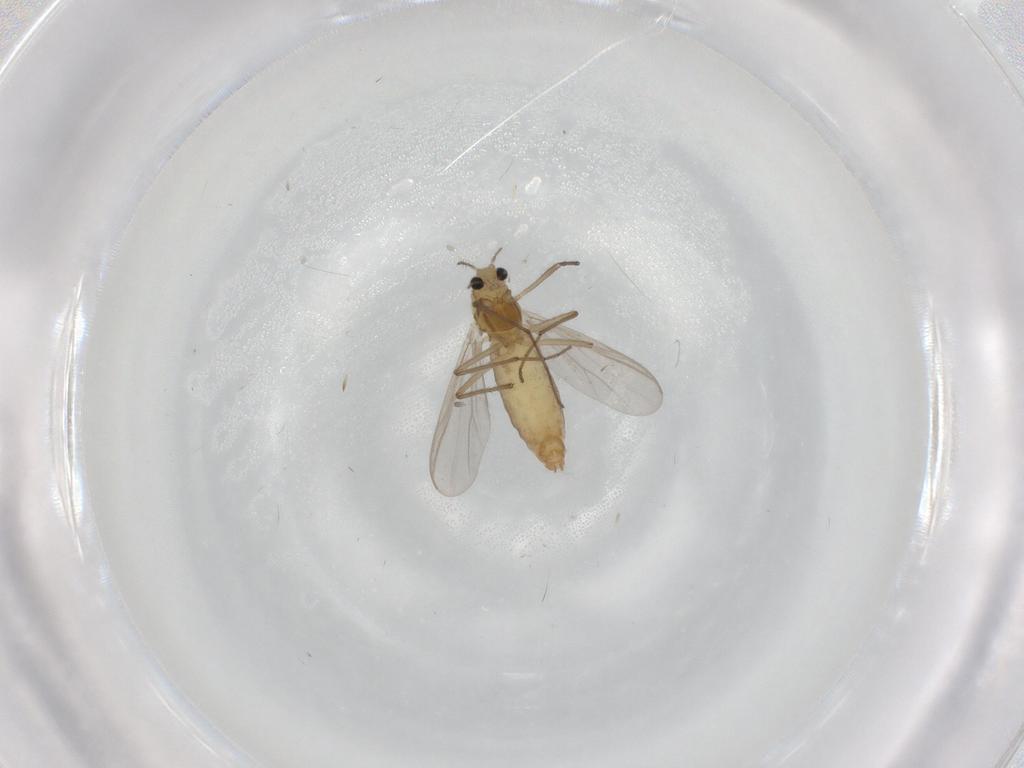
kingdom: Animalia
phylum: Arthropoda
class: Insecta
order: Diptera
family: Chironomidae
